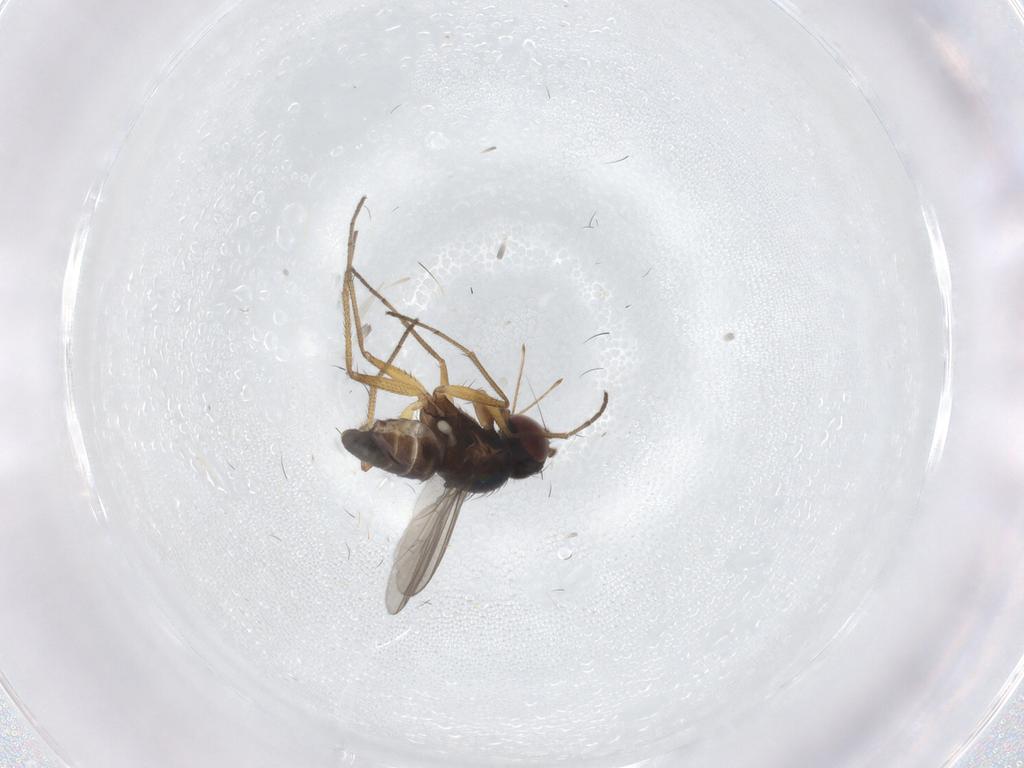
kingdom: Animalia
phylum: Arthropoda
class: Insecta
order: Diptera
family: Dolichopodidae
